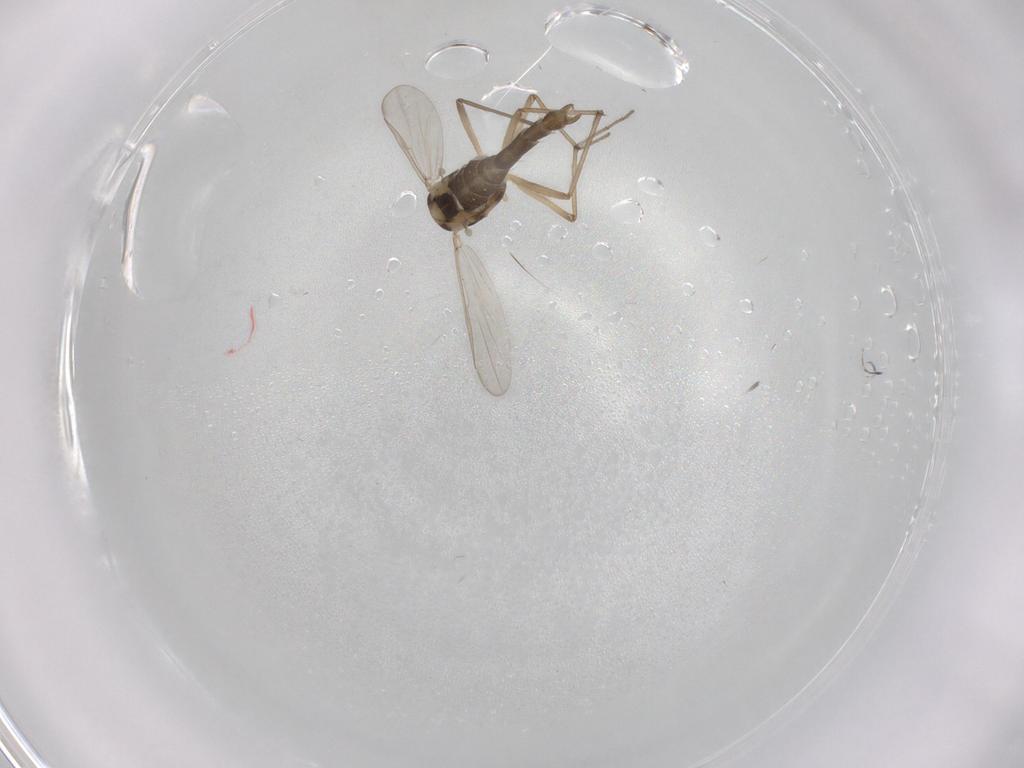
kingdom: Animalia
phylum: Arthropoda
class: Insecta
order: Diptera
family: Chironomidae
